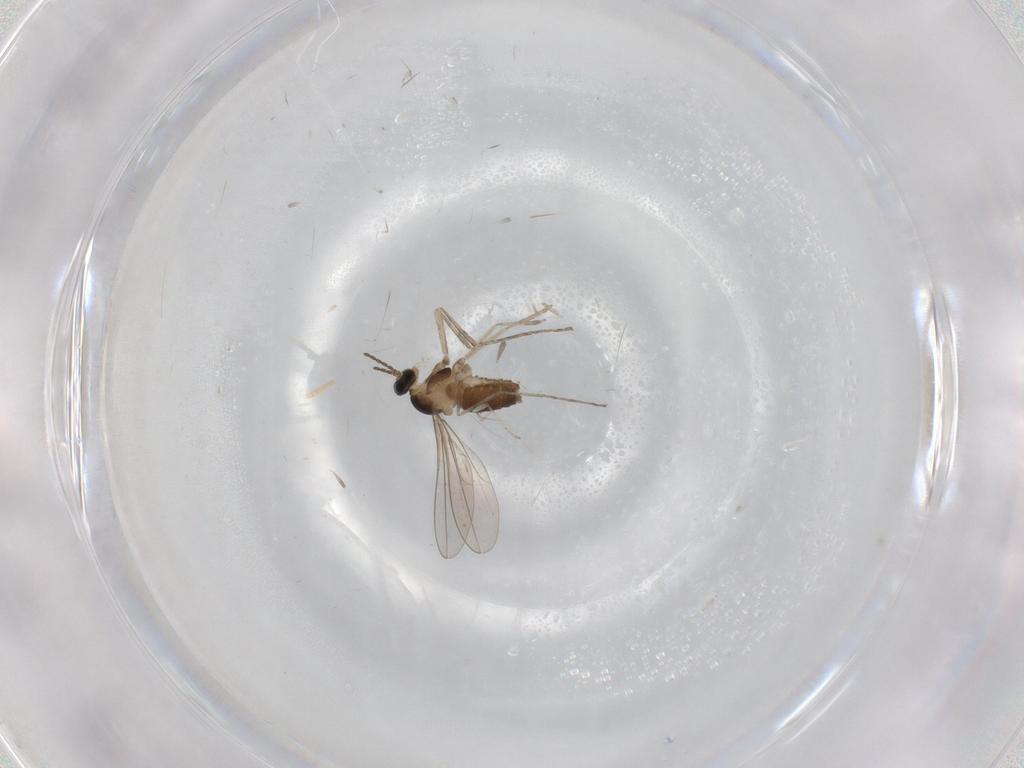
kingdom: Animalia
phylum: Arthropoda
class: Insecta
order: Diptera
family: Cecidomyiidae
